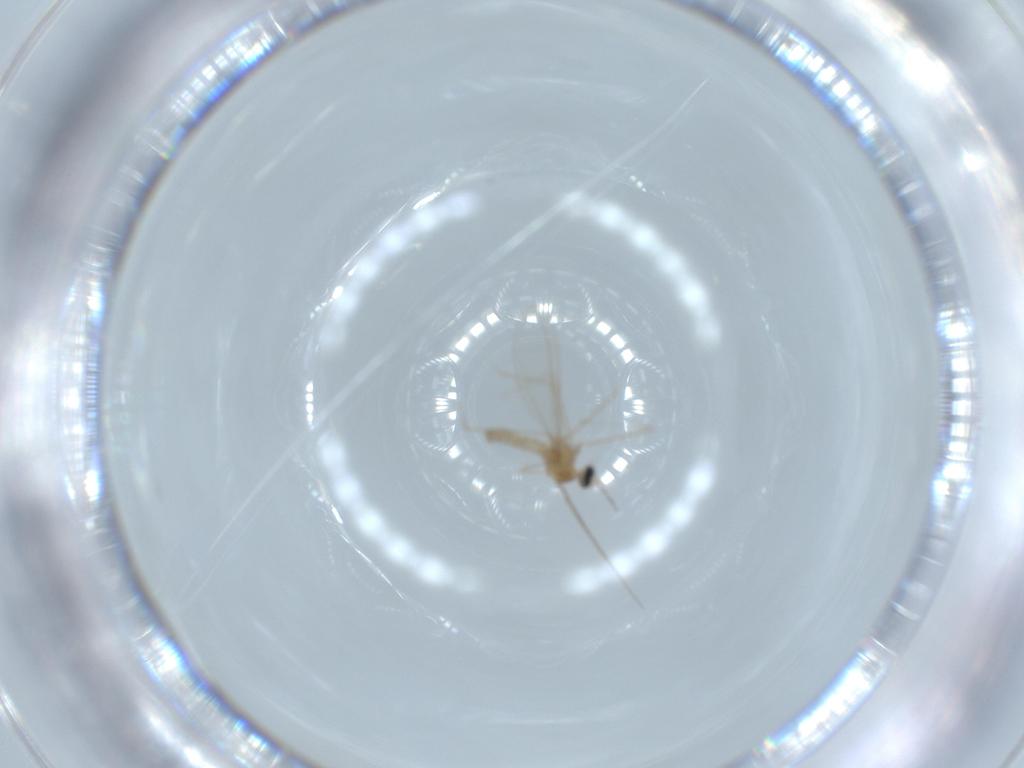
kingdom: Animalia
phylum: Arthropoda
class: Insecta
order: Diptera
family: Cecidomyiidae
